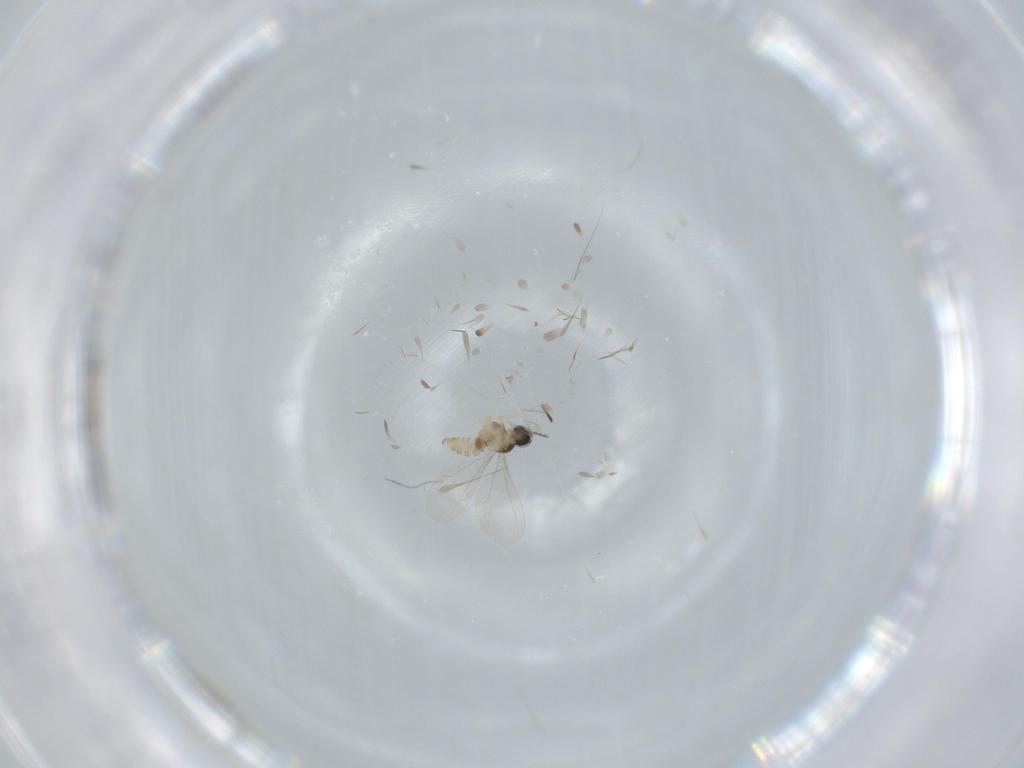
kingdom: Animalia
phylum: Arthropoda
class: Insecta
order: Diptera
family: Cecidomyiidae
